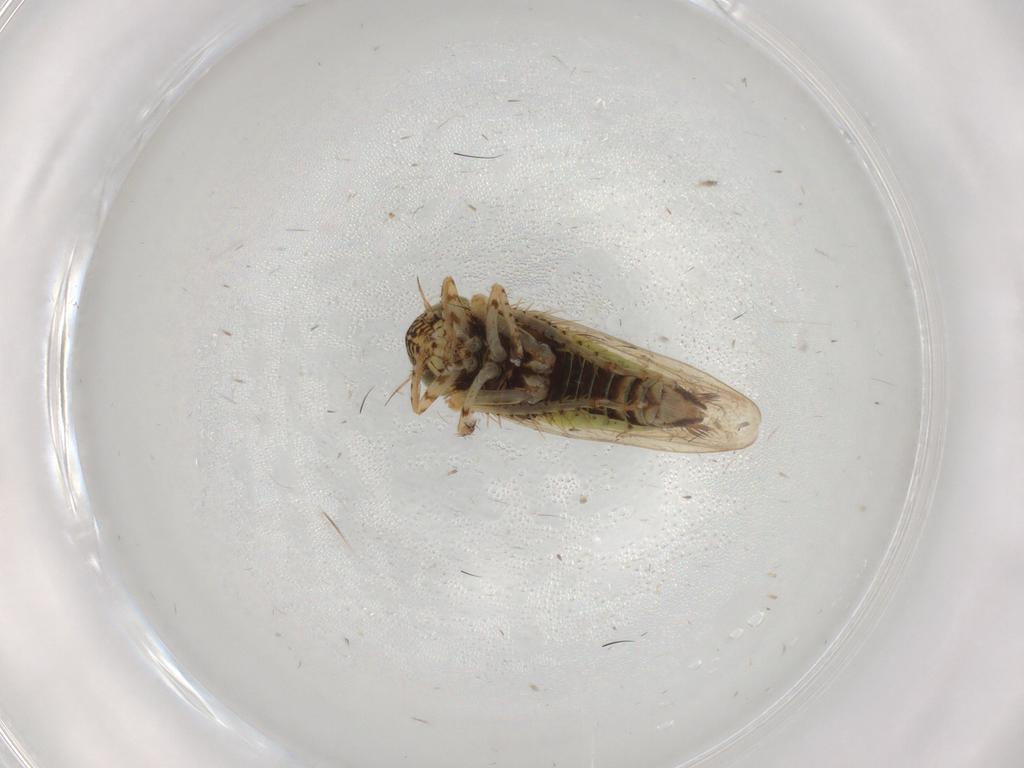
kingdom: Animalia
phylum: Arthropoda
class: Insecta
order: Hemiptera
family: Cicadellidae
